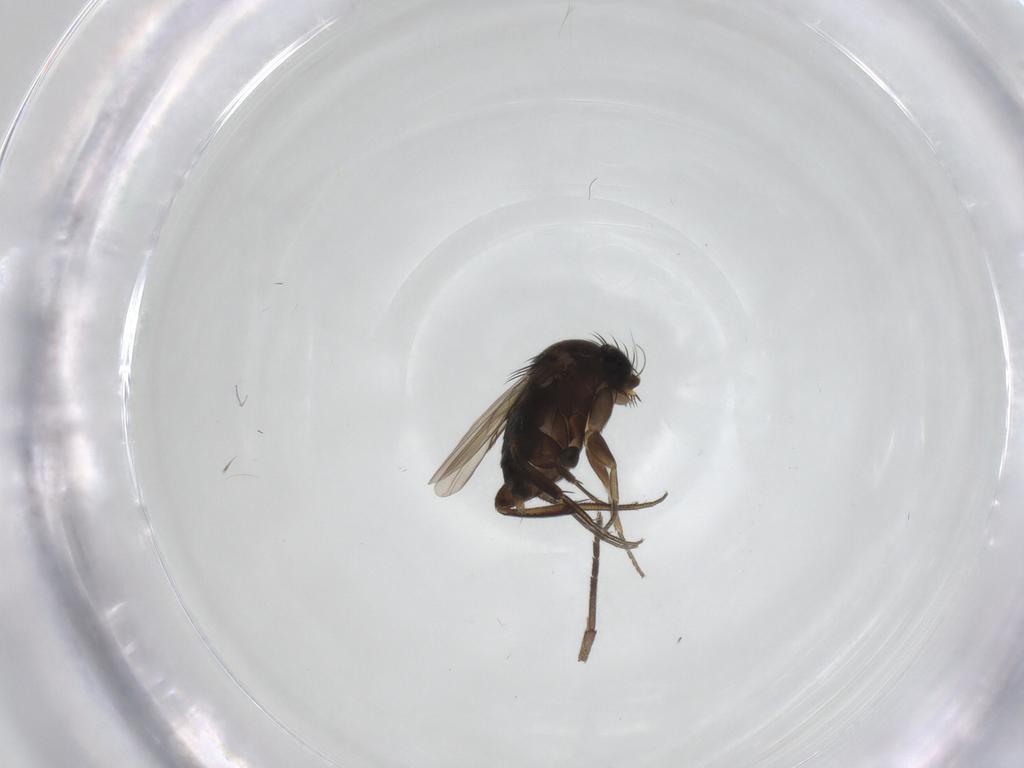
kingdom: Animalia
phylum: Arthropoda
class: Insecta
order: Diptera
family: Phoridae
